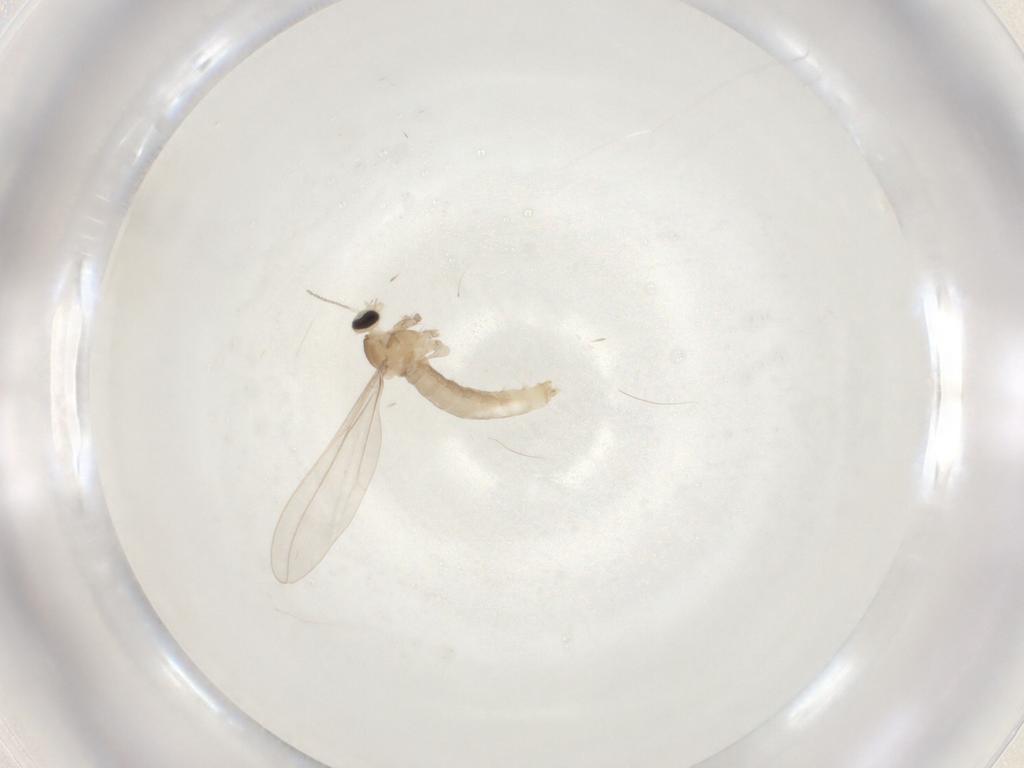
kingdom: Animalia
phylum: Arthropoda
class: Insecta
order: Diptera
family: Cecidomyiidae
